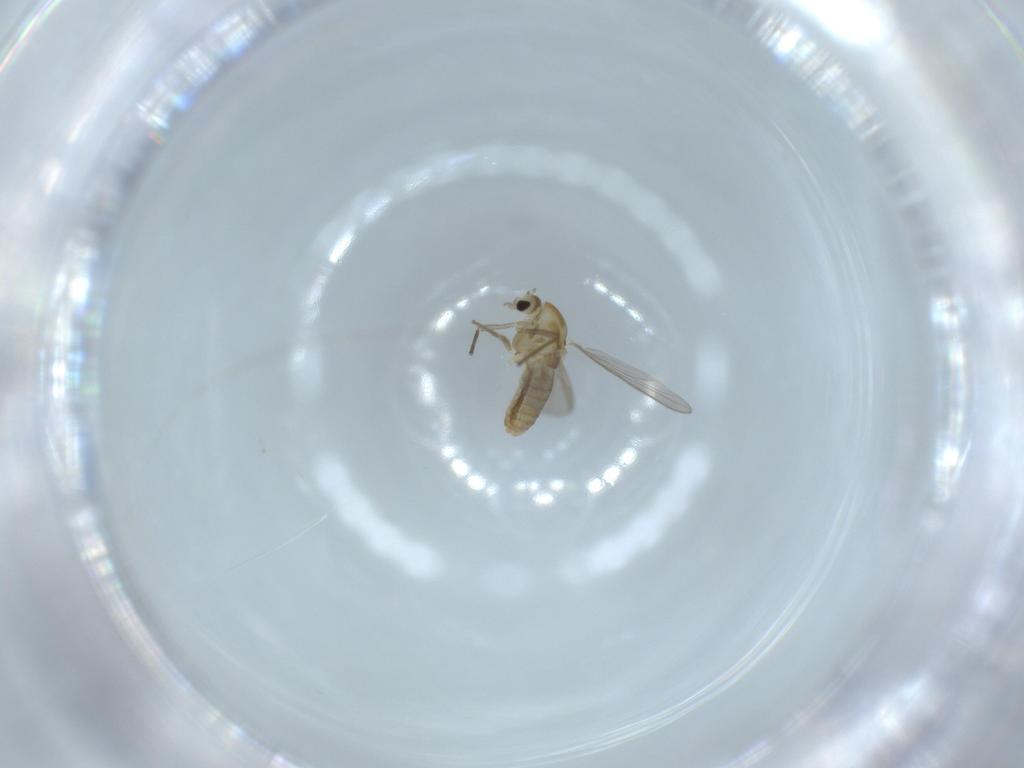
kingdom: Animalia
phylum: Arthropoda
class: Insecta
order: Diptera
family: Chironomidae
